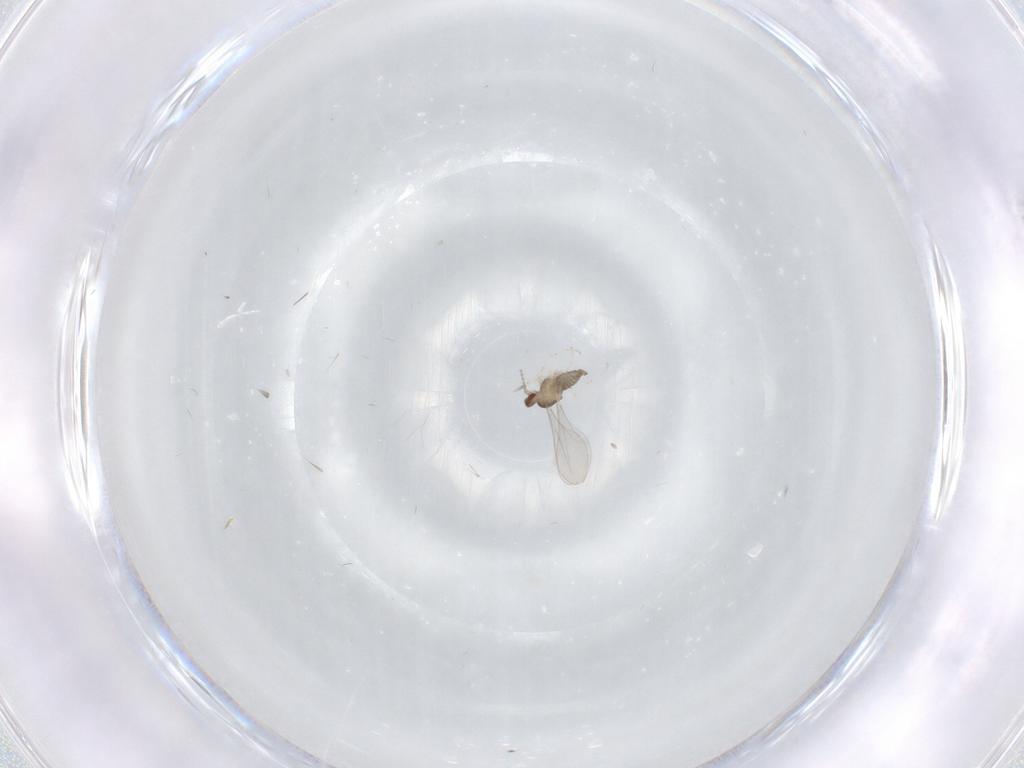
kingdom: Animalia
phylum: Arthropoda
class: Insecta
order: Diptera
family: Cecidomyiidae
